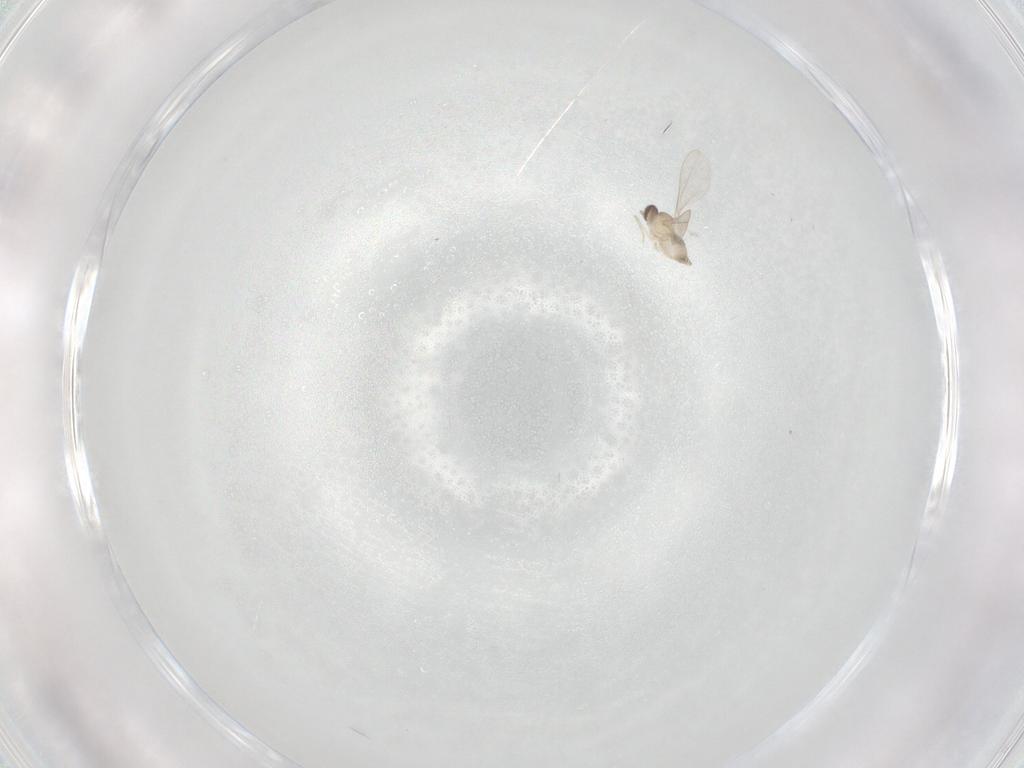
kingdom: Animalia
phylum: Arthropoda
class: Insecta
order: Diptera
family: Cecidomyiidae
